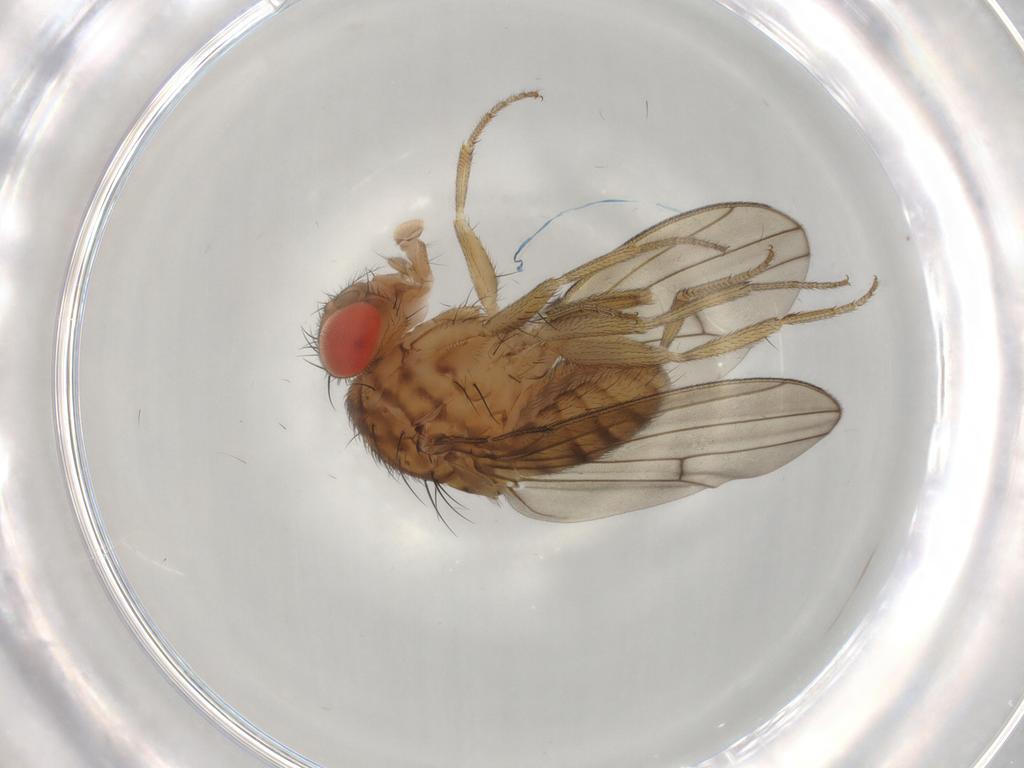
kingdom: Animalia
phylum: Arthropoda
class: Insecta
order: Diptera
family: Drosophilidae
